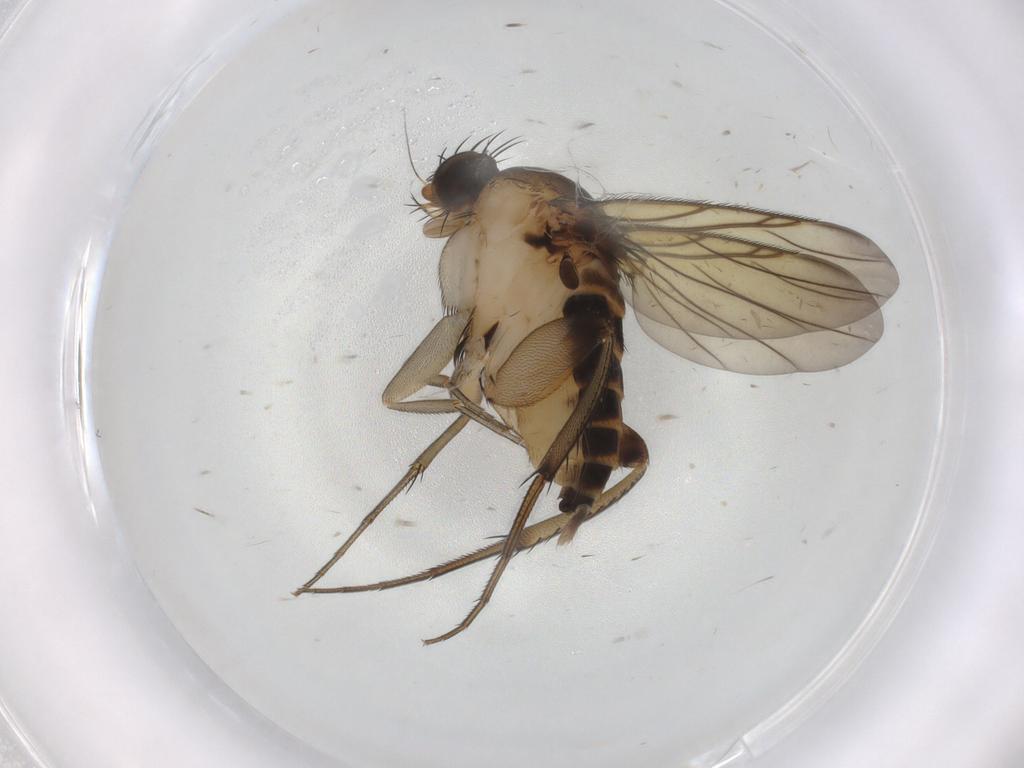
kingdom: Animalia
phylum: Arthropoda
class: Insecta
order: Diptera
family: Phoridae
